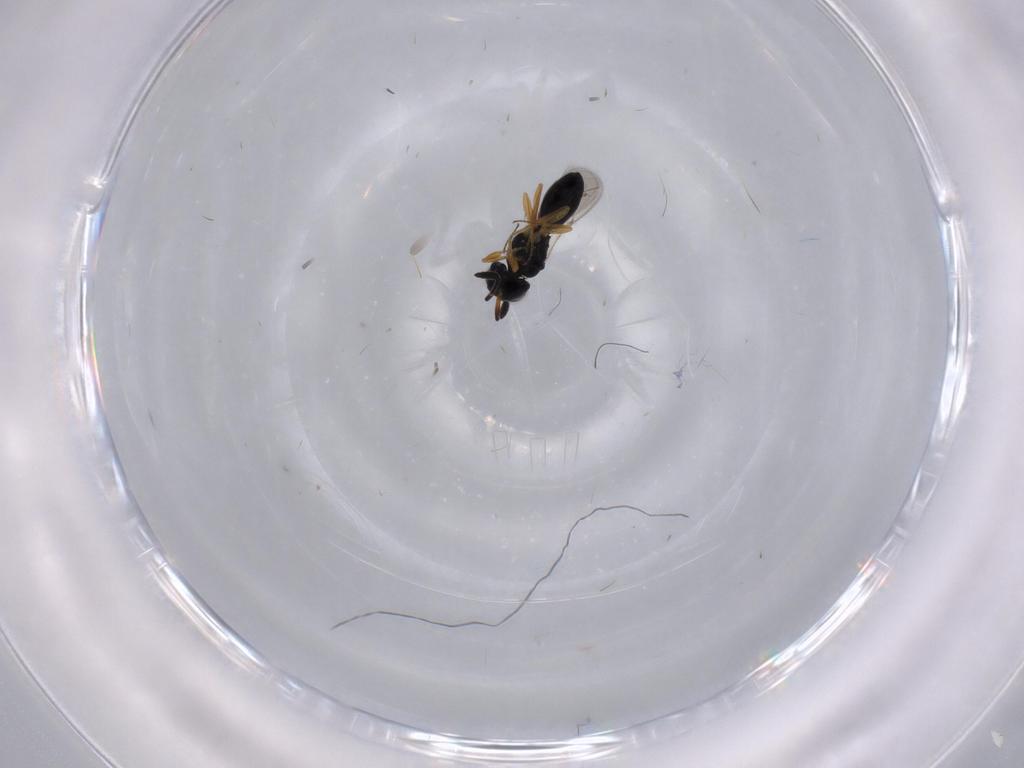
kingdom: Animalia
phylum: Arthropoda
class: Insecta
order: Hymenoptera
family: Scelionidae
